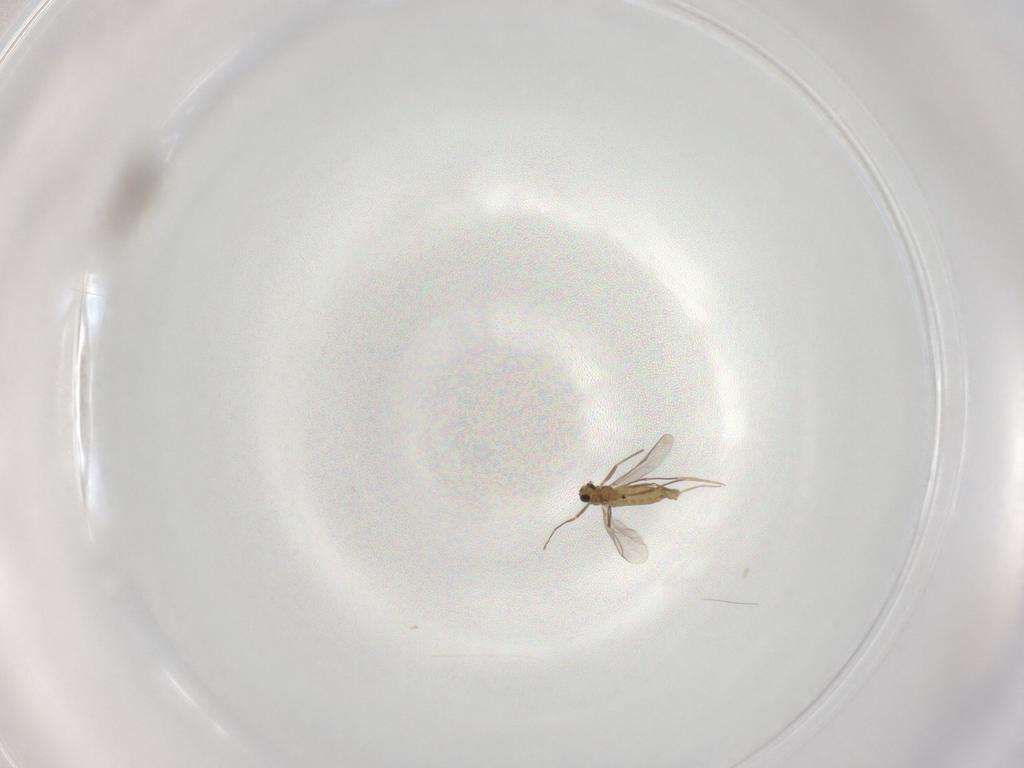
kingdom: Animalia
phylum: Arthropoda
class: Insecta
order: Diptera
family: Cecidomyiidae
